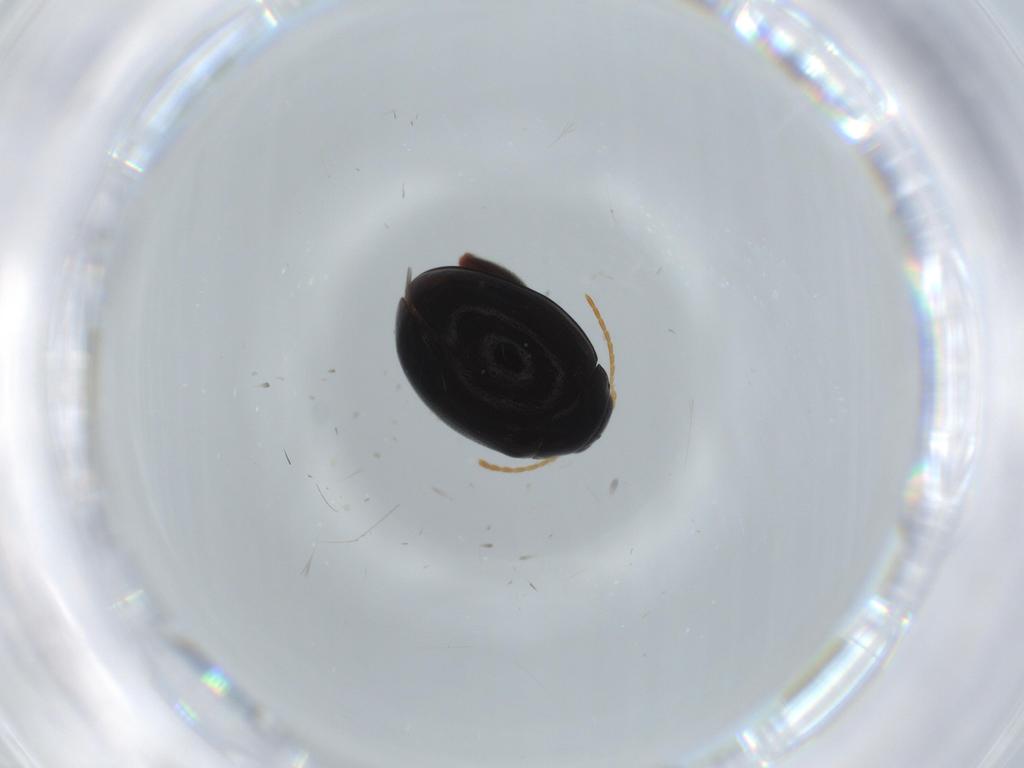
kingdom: Animalia
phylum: Arthropoda
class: Insecta
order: Coleoptera
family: Chrysomelidae
